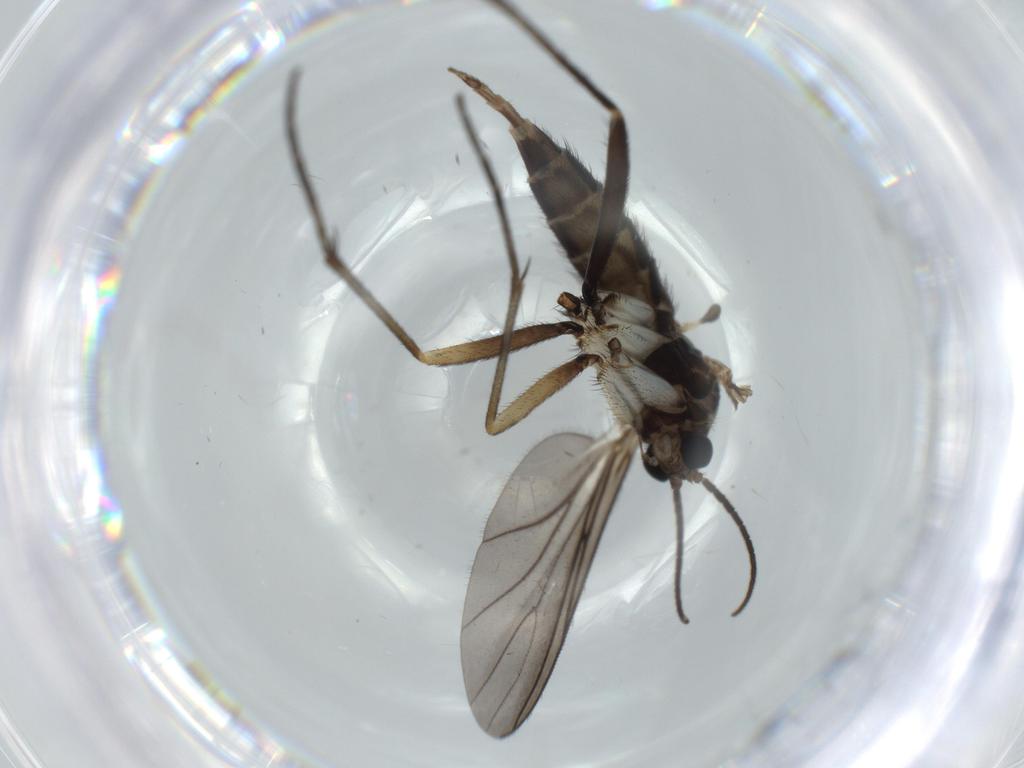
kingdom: Animalia
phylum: Arthropoda
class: Insecta
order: Diptera
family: Sciaridae
